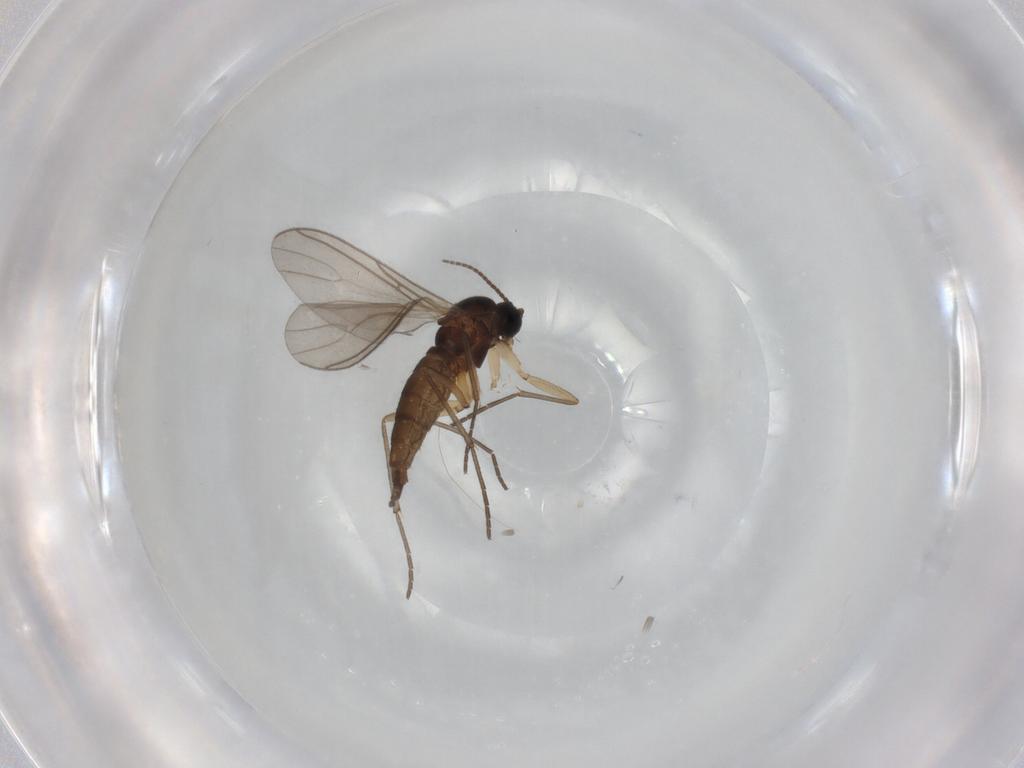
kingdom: Animalia
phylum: Arthropoda
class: Insecta
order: Diptera
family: Sciaridae
